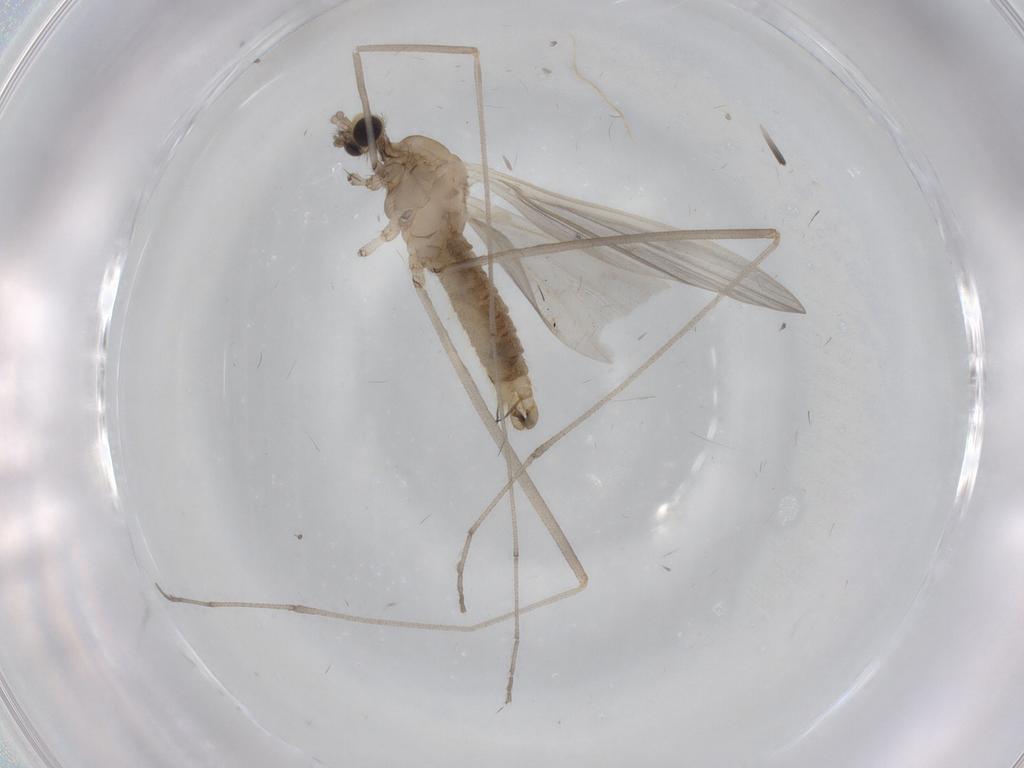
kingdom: Animalia
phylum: Arthropoda
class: Insecta
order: Diptera
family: Limoniidae
